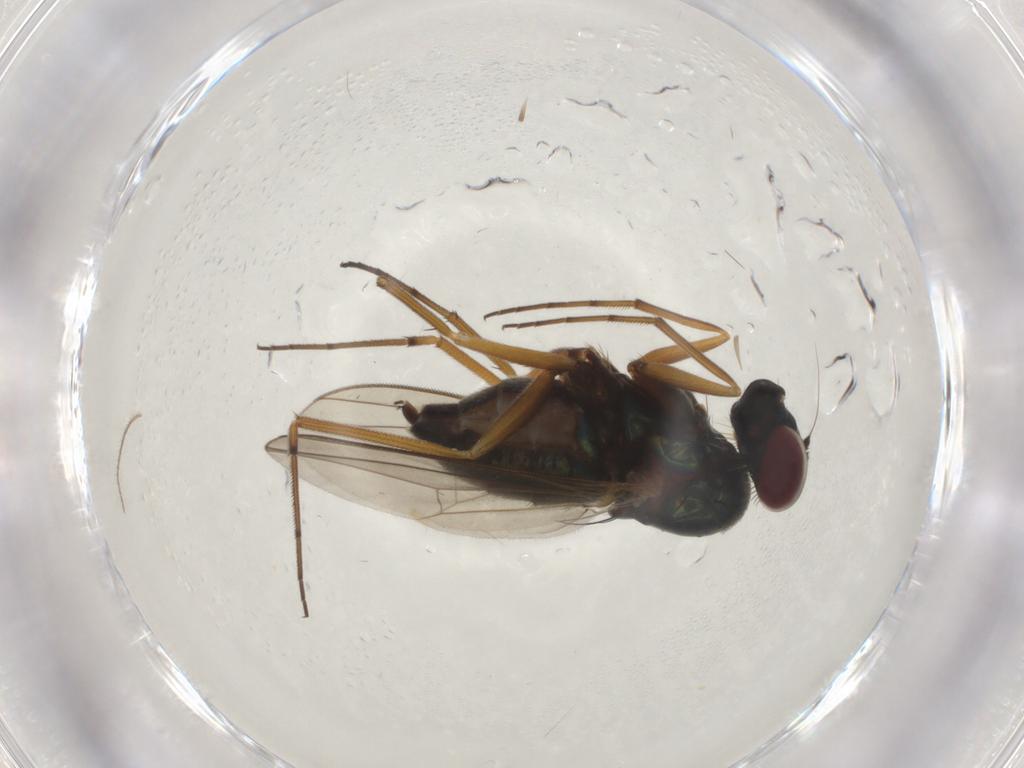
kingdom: Animalia
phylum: Arthropoda
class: Insecta
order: Diptera
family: Dolichopodidae
